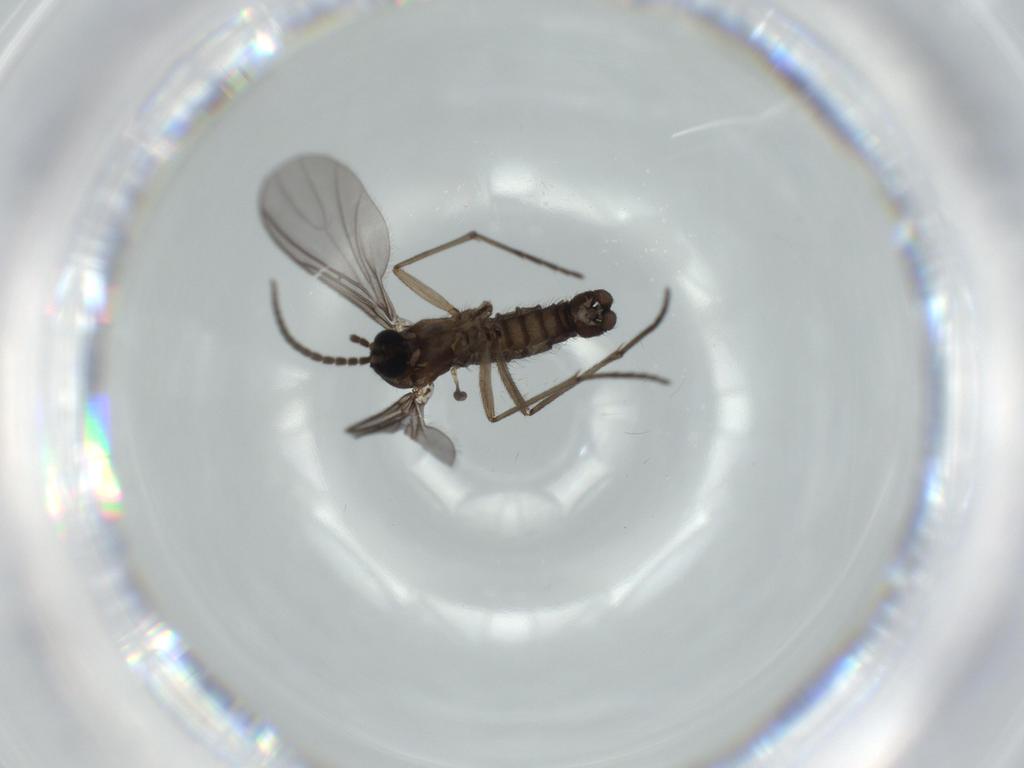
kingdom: Animalia
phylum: Arthropoda
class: Insecta
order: Diptera
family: Sciaridae
